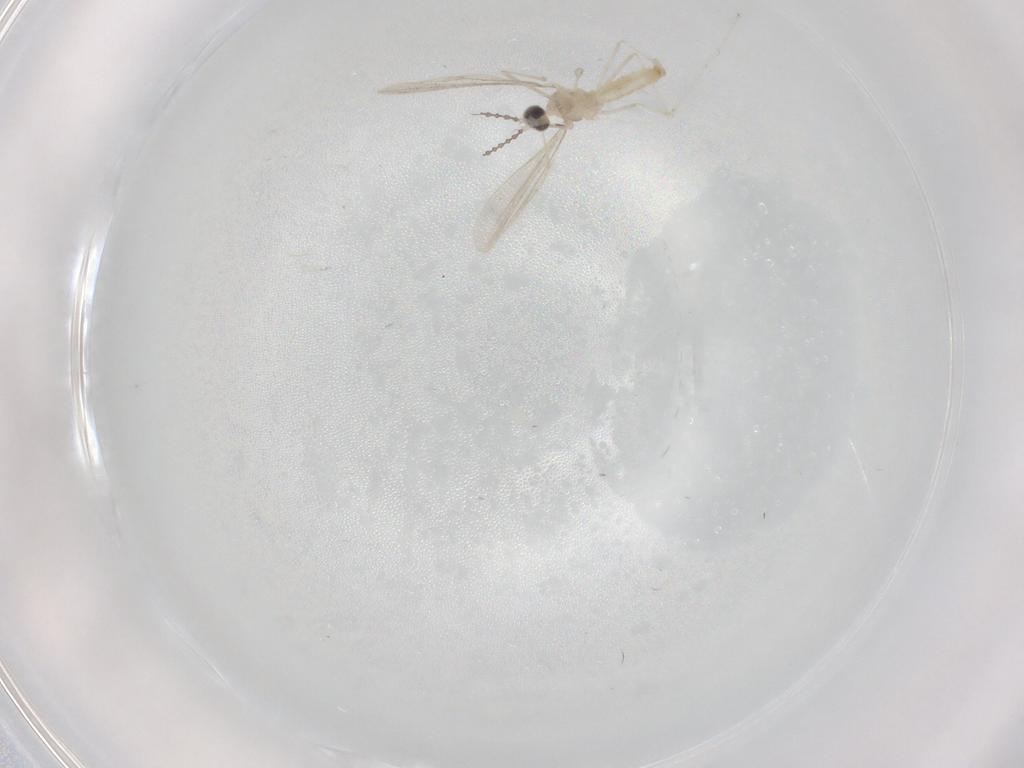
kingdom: Animalia
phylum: Arthropoda
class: Insecta
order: Diptera
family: Cecidomyiidae
